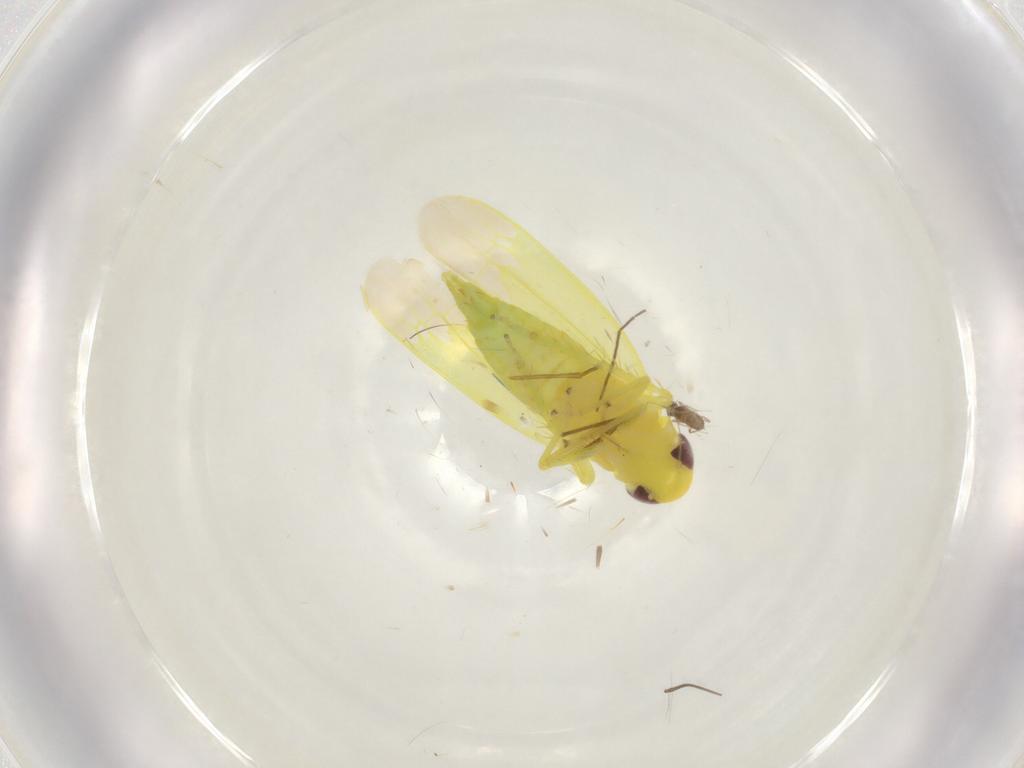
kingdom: Animalia
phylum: Arthropoda
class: Insecta
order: Hemiptera
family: Cicadellidae
